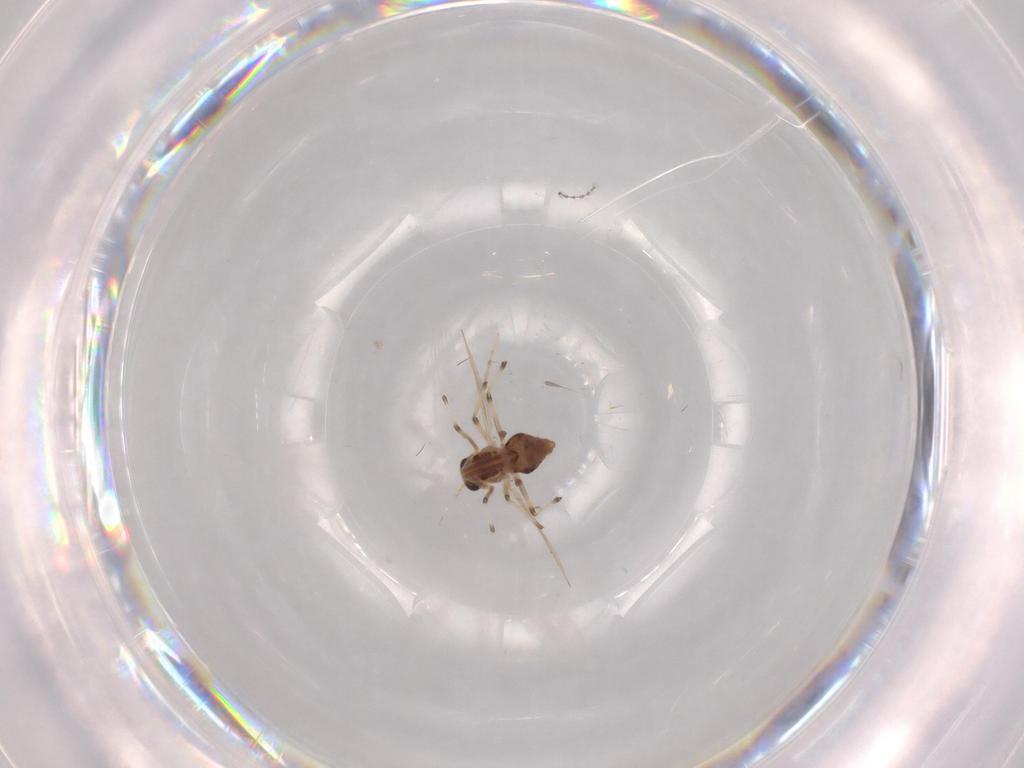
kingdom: Animalia
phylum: Arthropoda
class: Insecta
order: Diptera
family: Chironomidae
